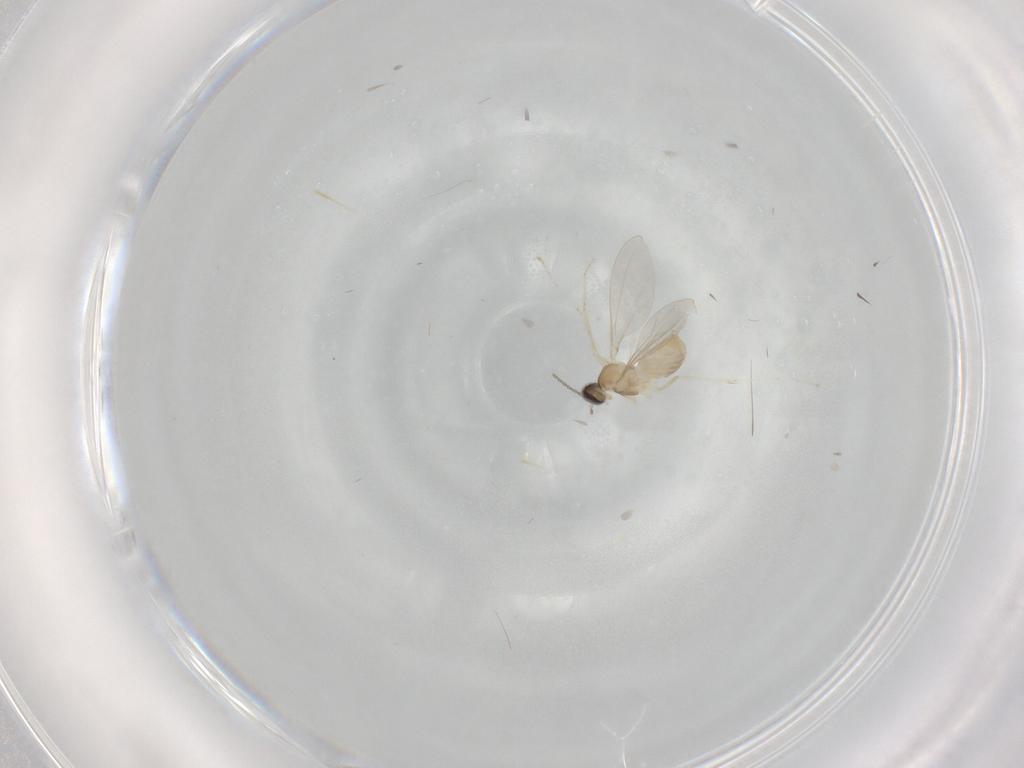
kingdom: Animalia
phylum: Arthropoda
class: Insecta
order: Diptera
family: Cecidomyiidae
